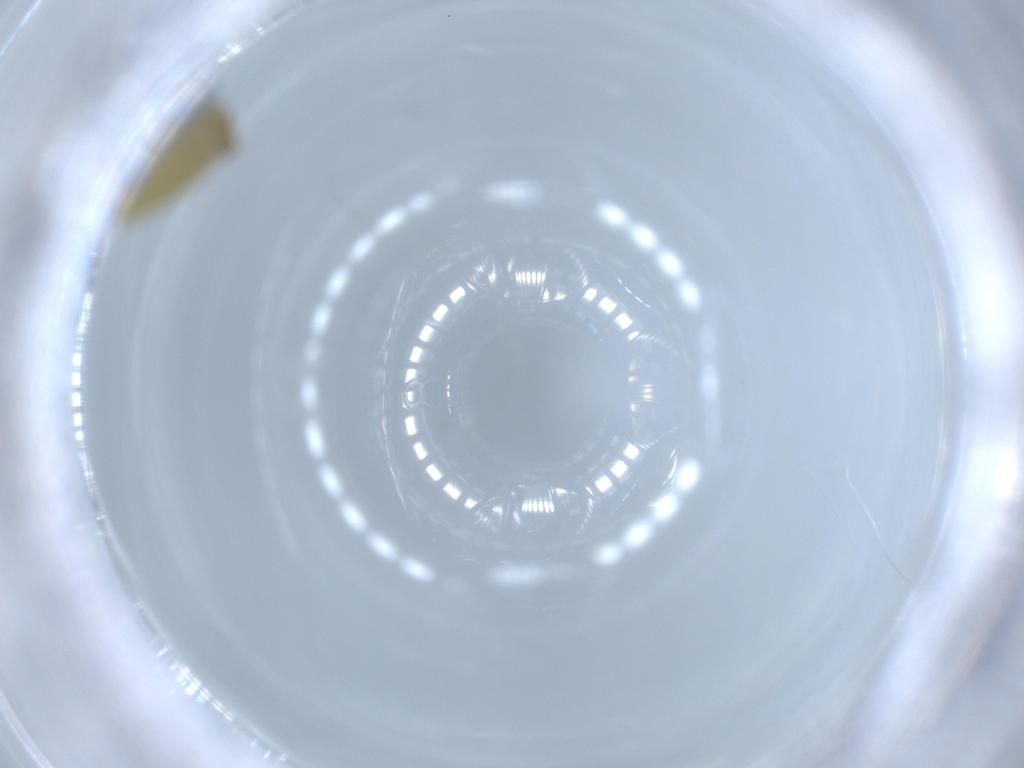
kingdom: Animalia
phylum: Arthropoda
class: Insecta
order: Diptera
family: Chironomidae
